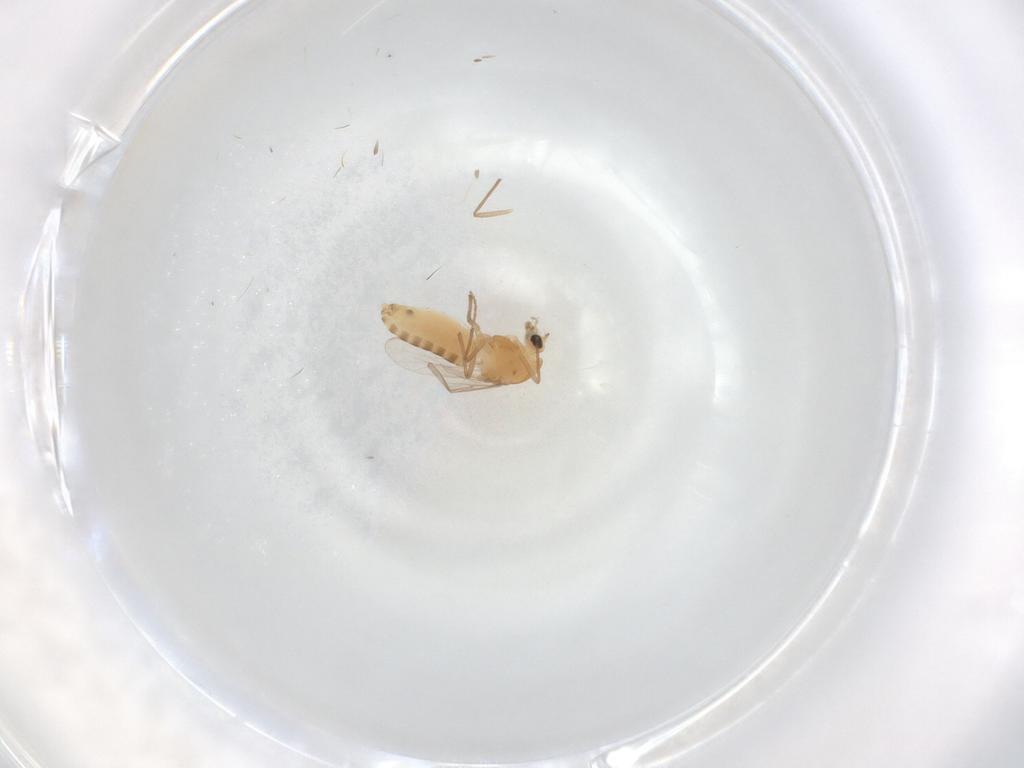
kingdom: Animalia
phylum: Arthropoda
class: Insecta
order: Diptera
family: Chironomidae
